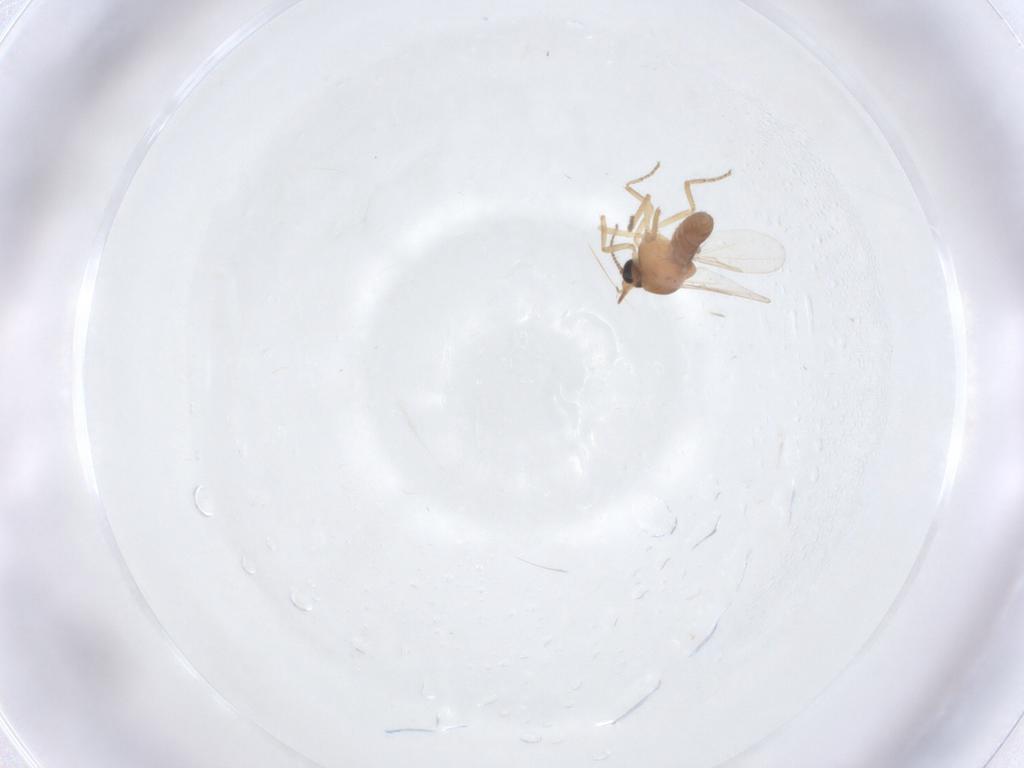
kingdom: Animalia
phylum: Arthropoda
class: Insecta
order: Diptera
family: Ceratopogonidae
